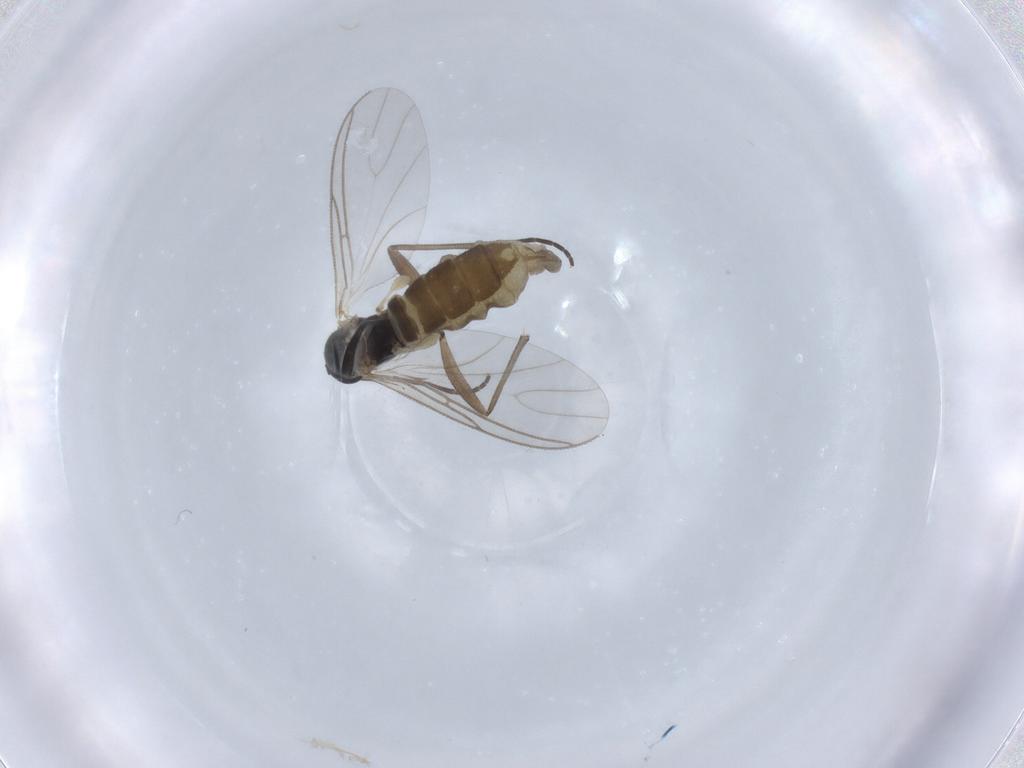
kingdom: Animalia
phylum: Arthropoda
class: Insecta
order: Diptera
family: Sciaridae
